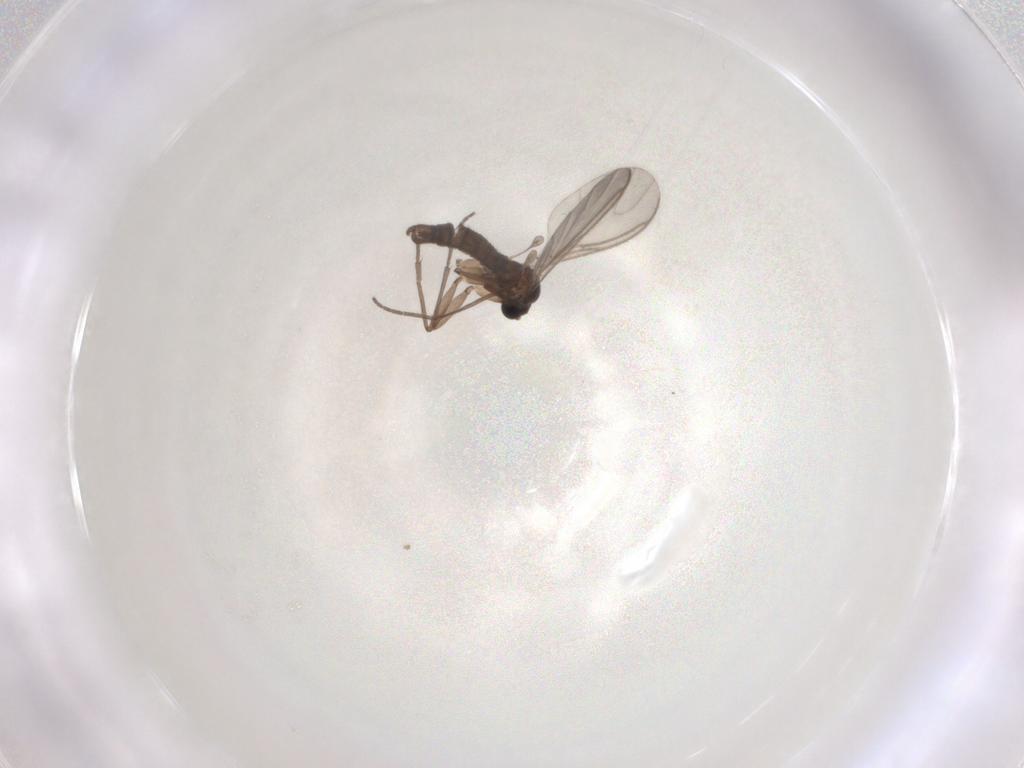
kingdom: Animalia
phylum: Arthropoda
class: Insecta
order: Diptera
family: Sciaridae
